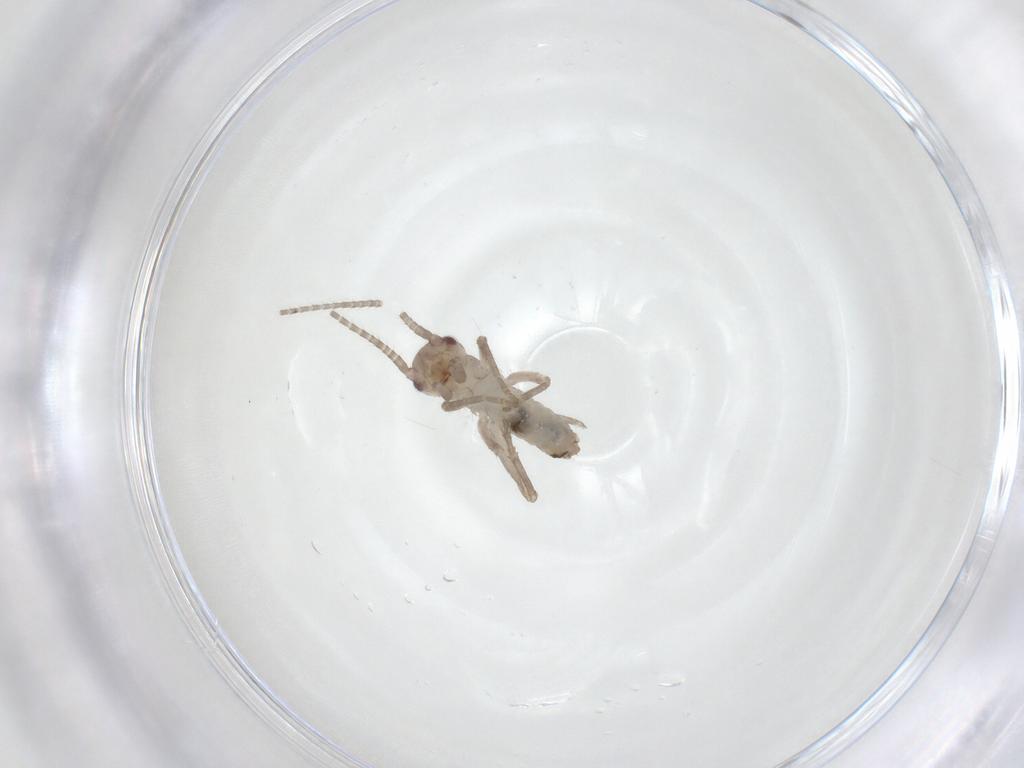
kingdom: Animalia
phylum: Arthropoda
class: Insecta
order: Orthoptera
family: Mogoplistidae
